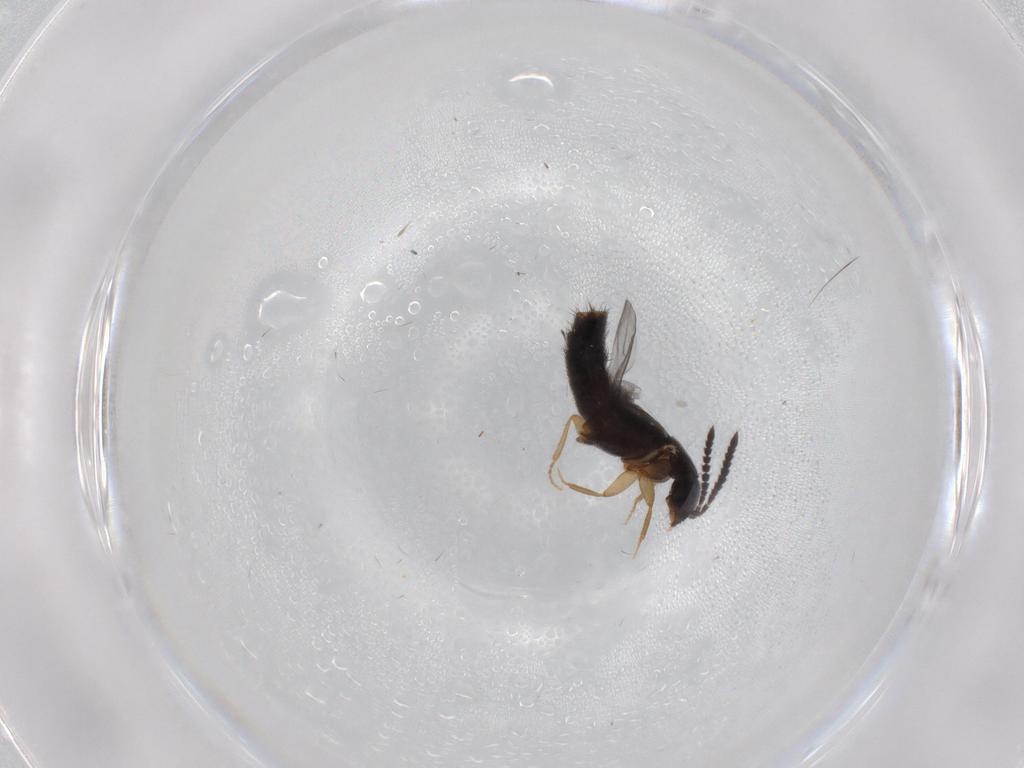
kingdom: Animalia
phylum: Arthropoda
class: Insecta
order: Coleoptera
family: Staphylinidae
